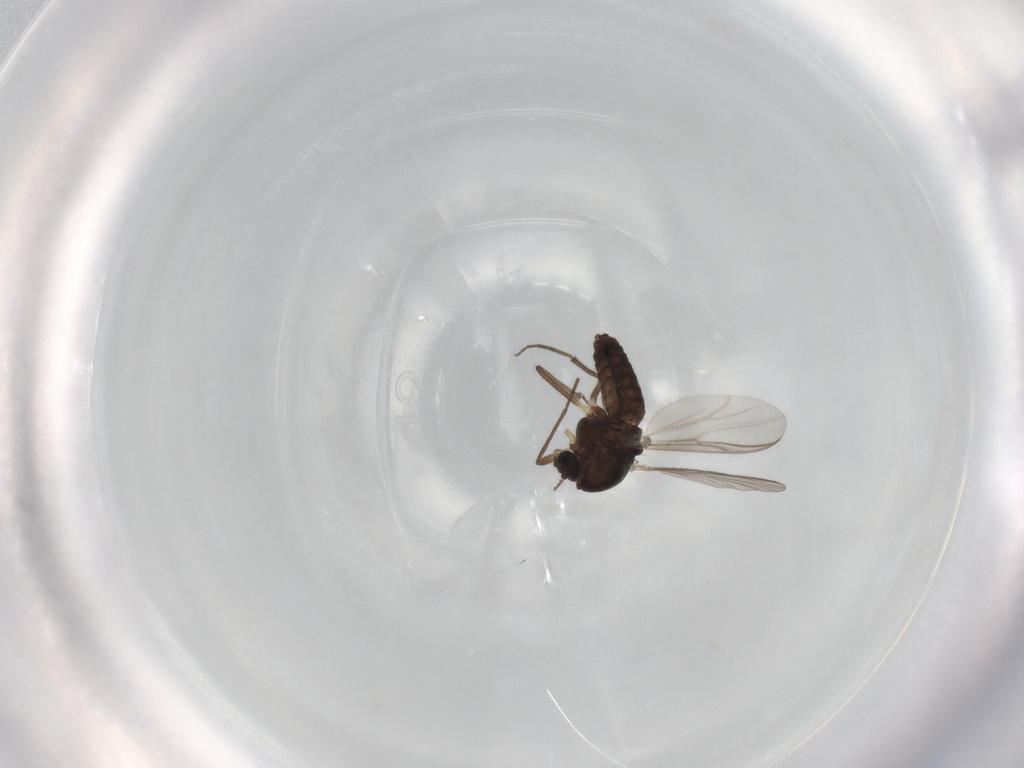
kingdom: Animalia
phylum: Arthropoda
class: Insecta
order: Diptera
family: Chironomidae
